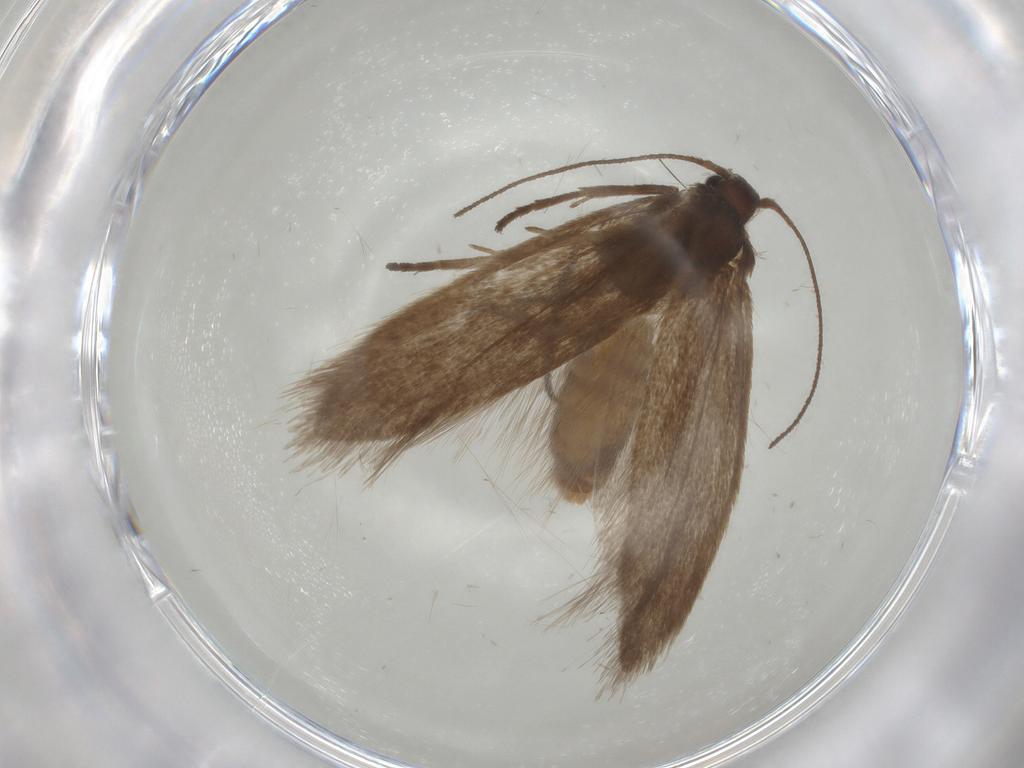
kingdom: Animalia
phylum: Arthropoda
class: Insecta
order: Lepidoptera
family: Limacodidae
